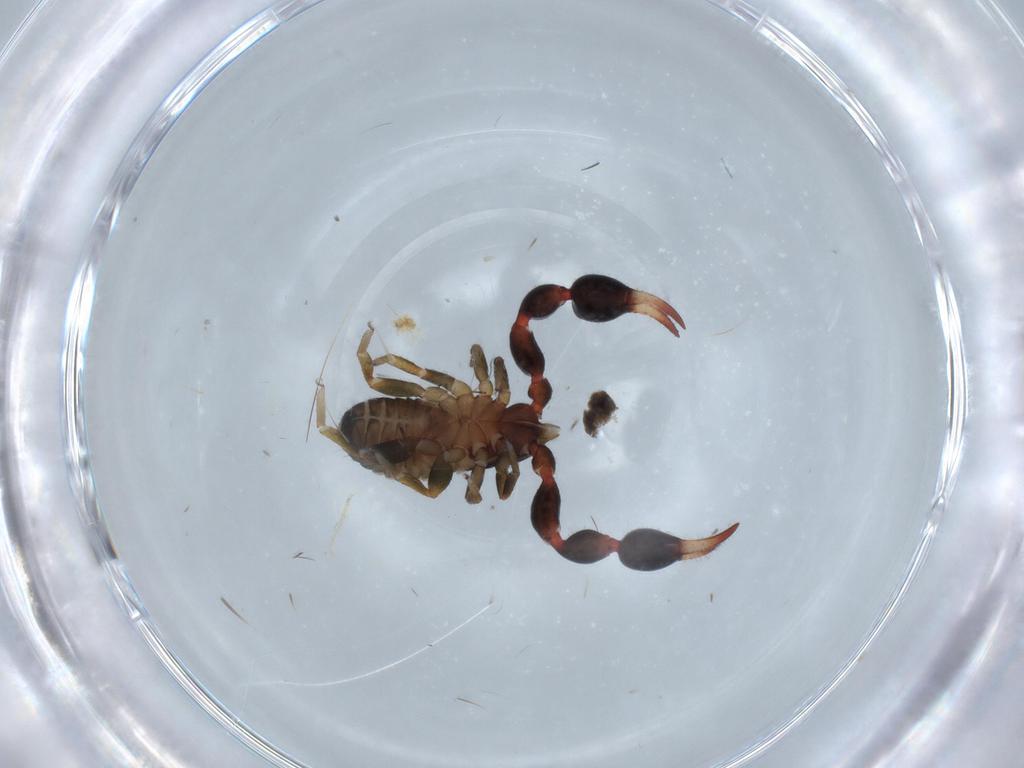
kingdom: Animalia
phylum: Arthropoda
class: Arachnida
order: Pseudoscorpiones
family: Chernetidae
